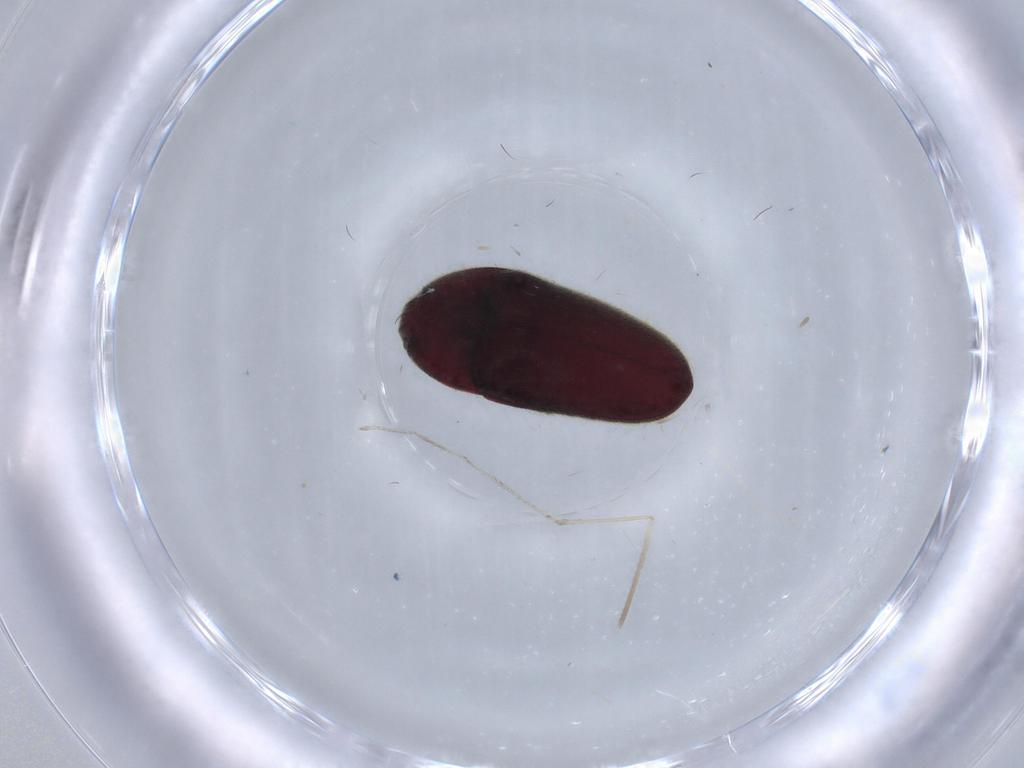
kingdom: Animalia
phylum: Arthropoda
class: Insecta
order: Coleoptera
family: Throscidae
